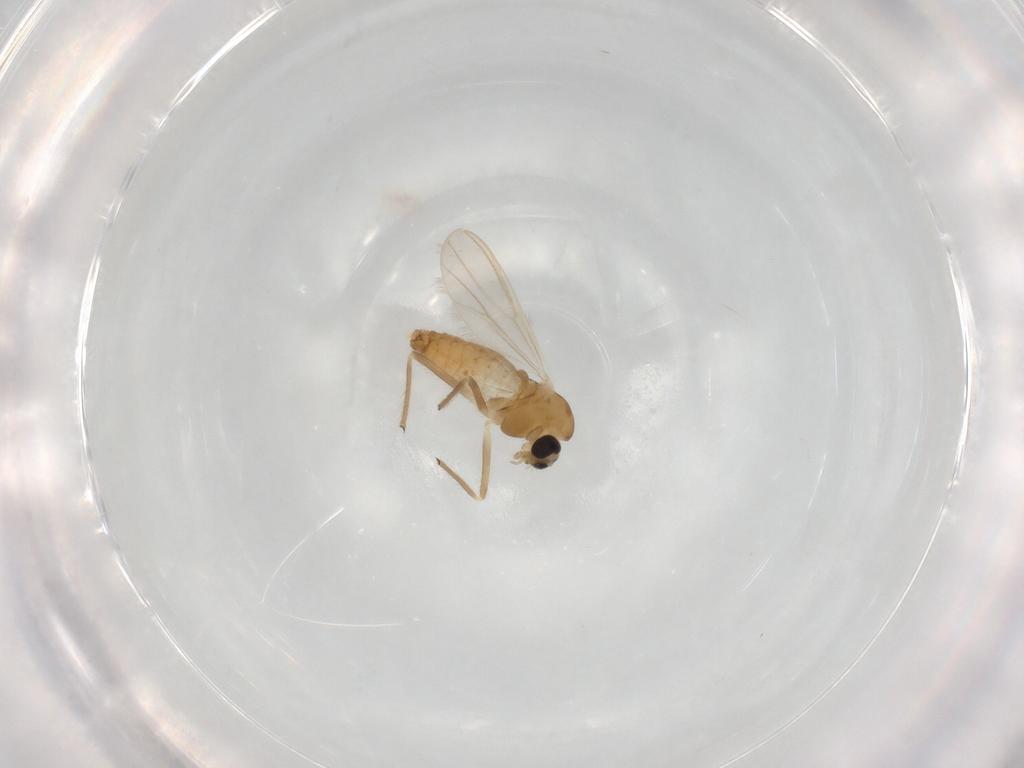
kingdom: Animalia
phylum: Arthropoda
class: Insecta
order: Diptera
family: Chironomidae
